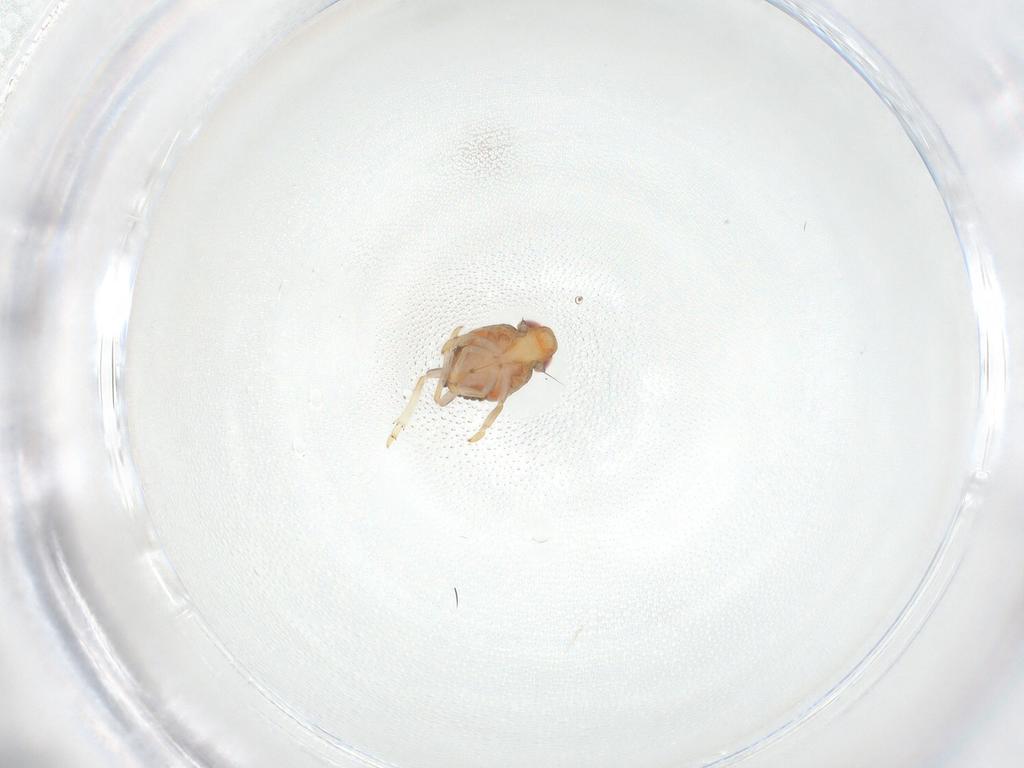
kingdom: Animalia
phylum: Arthropoda
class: Insecta
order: Hemiptera
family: Issidae
